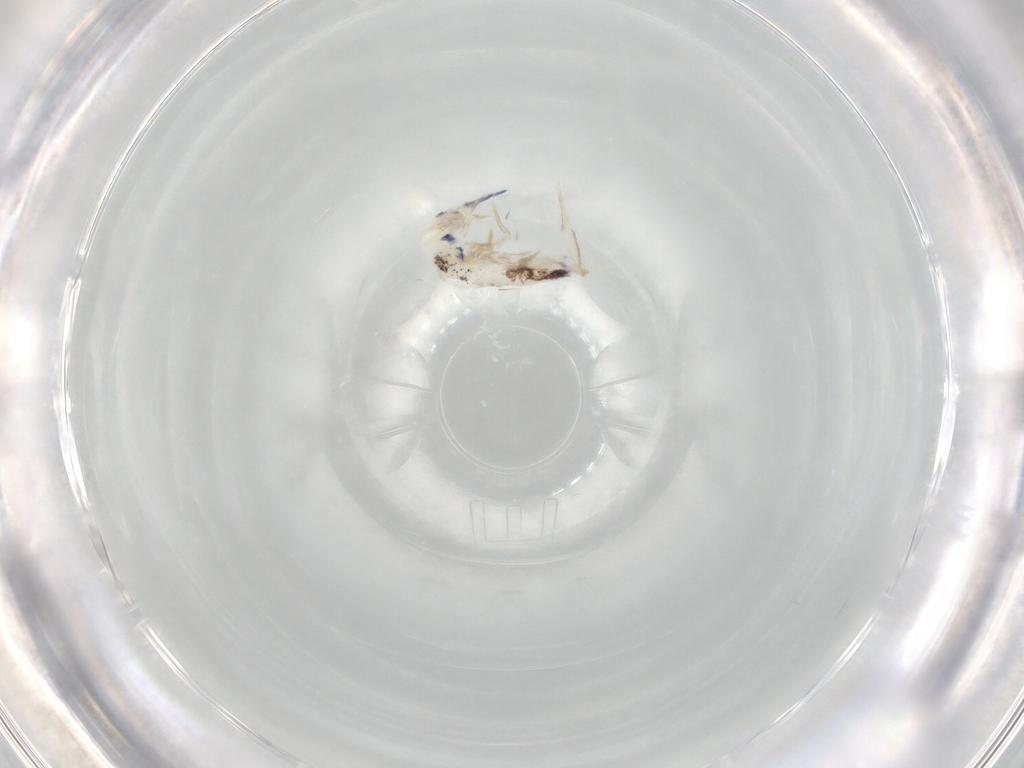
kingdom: Animalia
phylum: Arthropoda
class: Collembola
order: Entomobryomorpha
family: Entomobryidae
